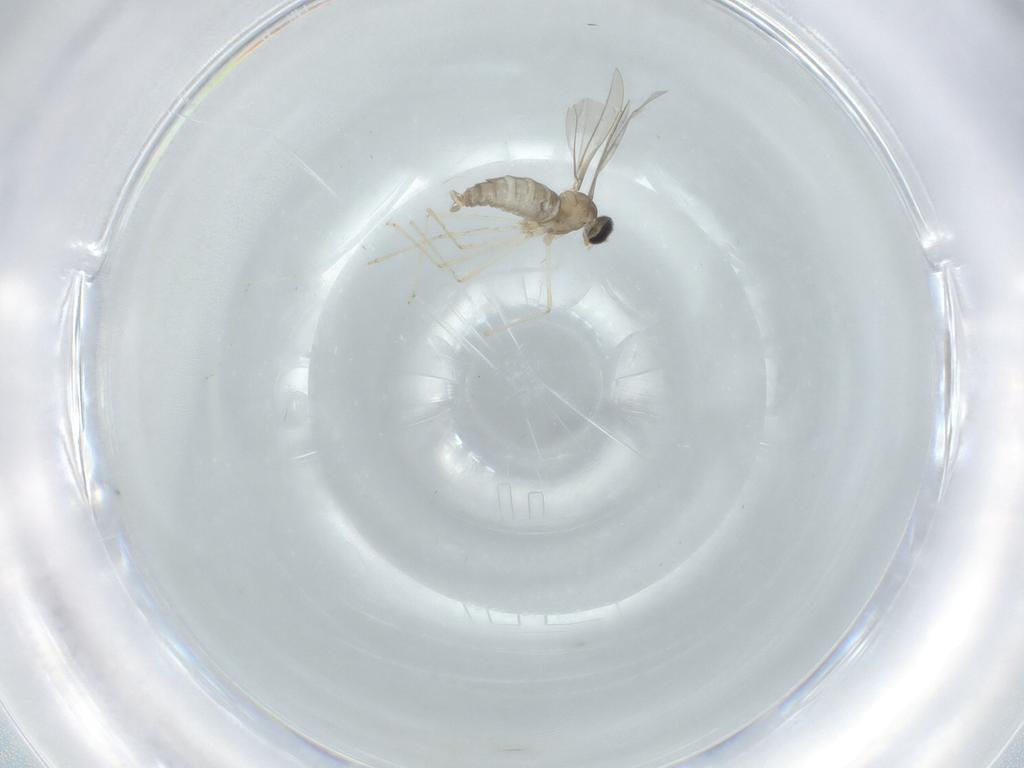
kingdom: Animalia
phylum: Arthropoda
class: Insecta
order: Diptera
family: Cecidomyiidae
